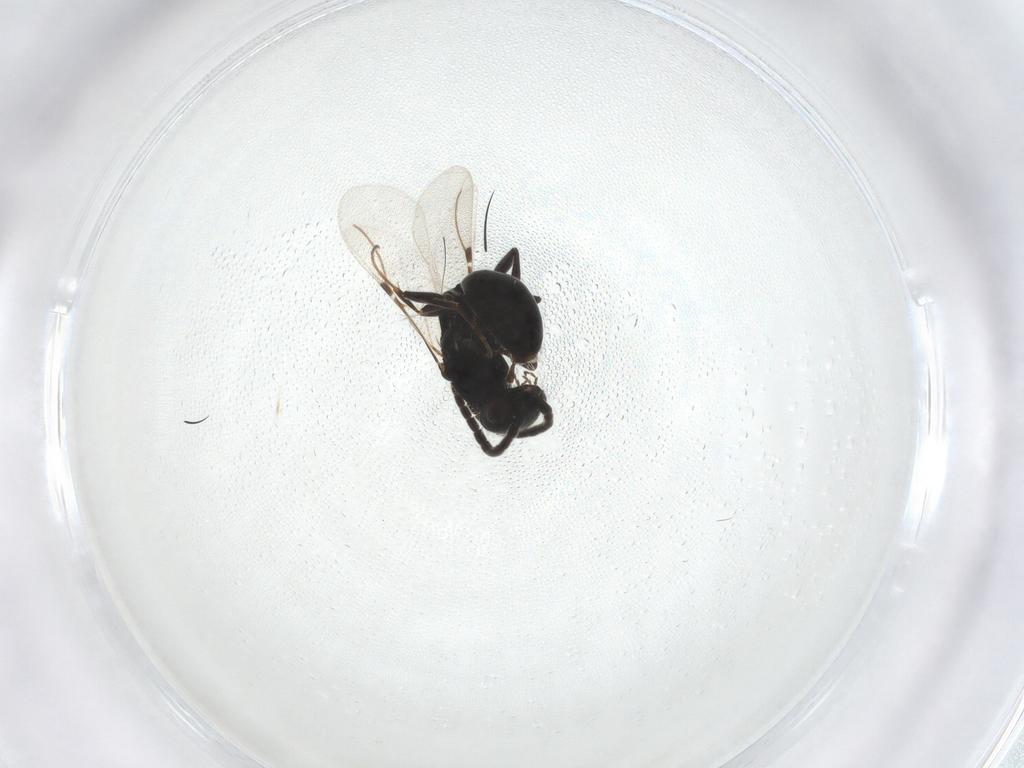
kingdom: Animalia
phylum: Arthropoda
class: Insecta
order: Hymenoptera
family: Bethylidae
